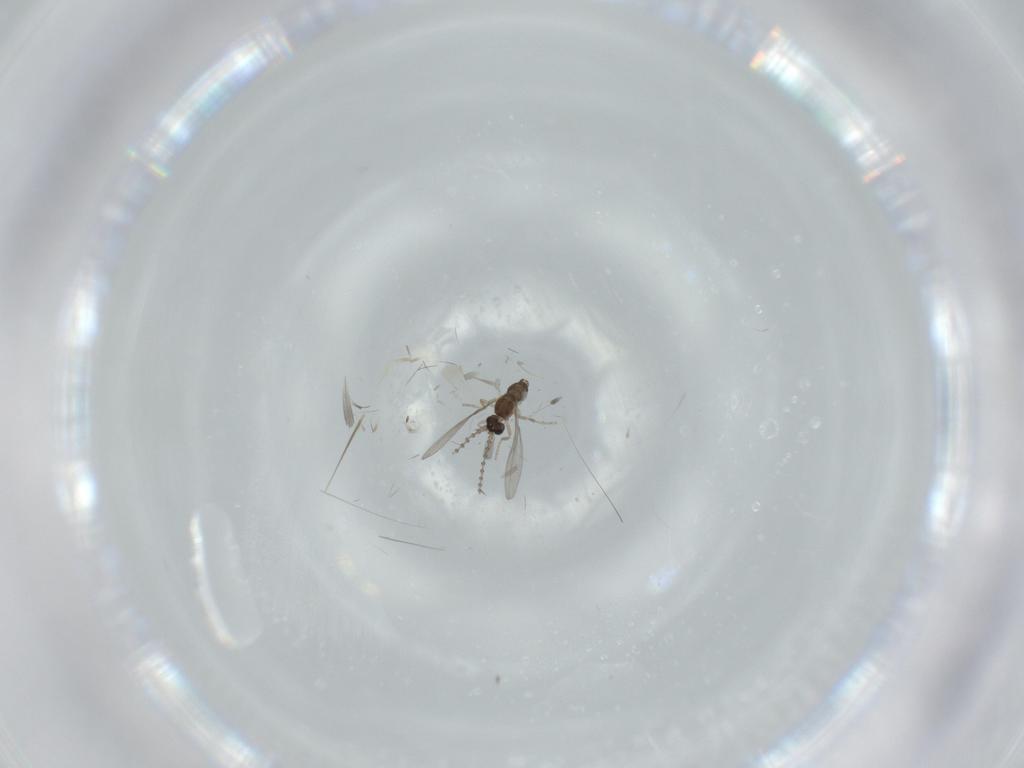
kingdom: Animalia
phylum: Arthropoda
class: Insecta
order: Diptera
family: Cecidomyiidae
